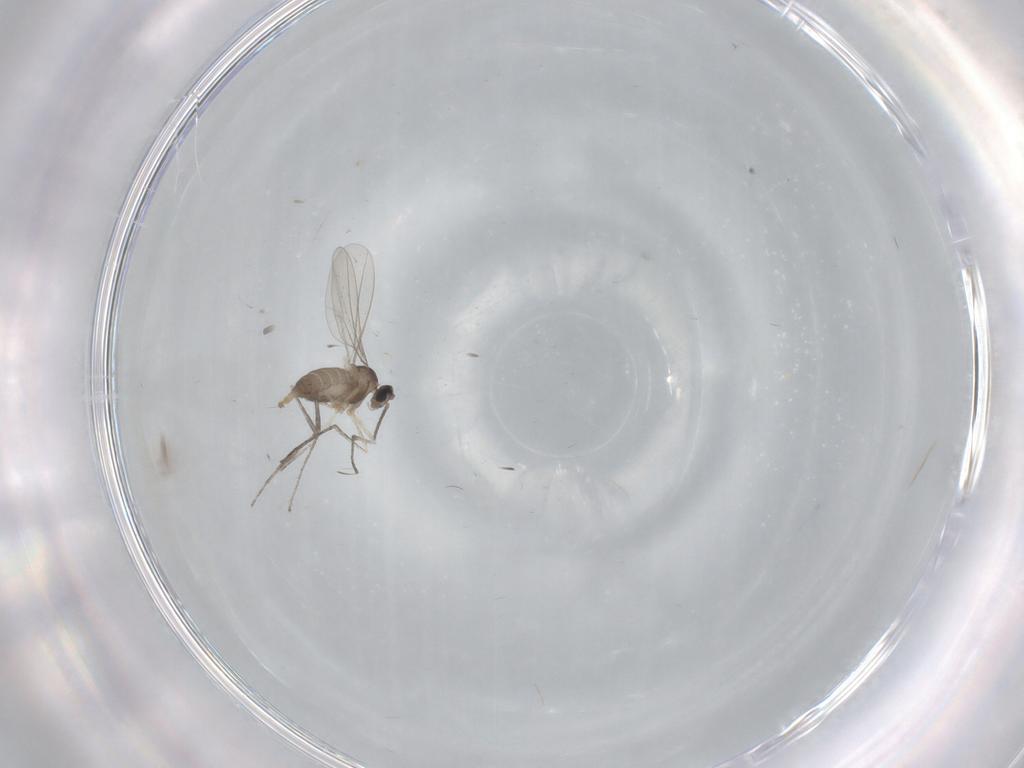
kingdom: Animalia
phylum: Arthropoda
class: Insecta
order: Diptera
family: Cecidomyiidae
